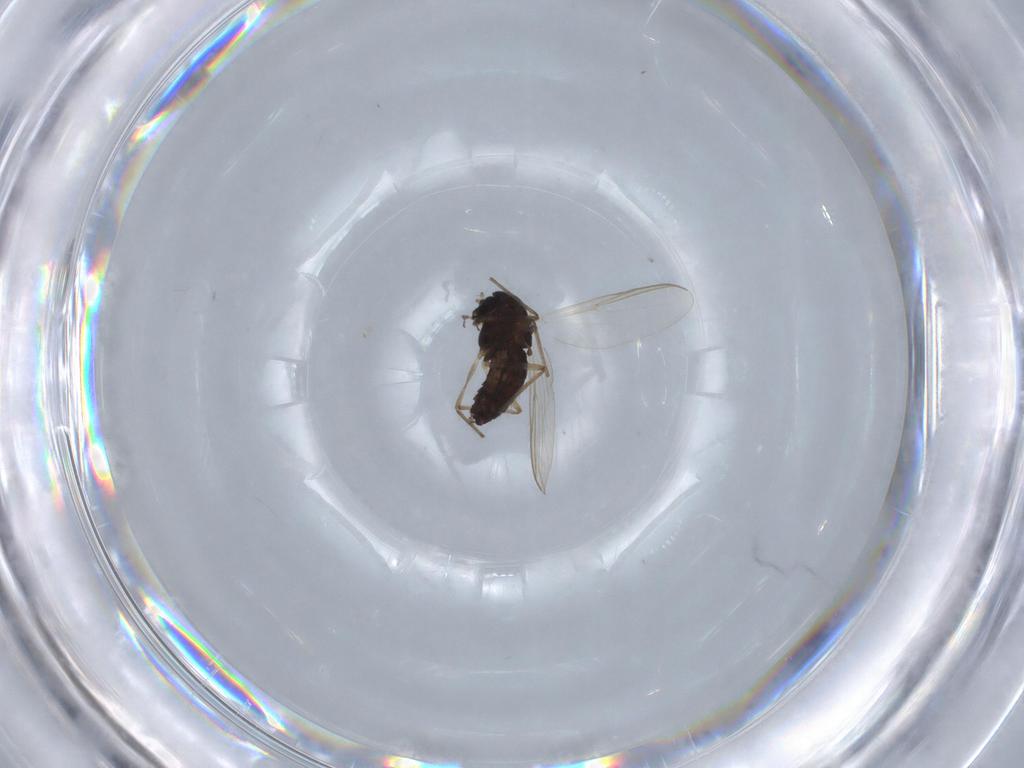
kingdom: Animalia
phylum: Arthropoda
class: Insecta
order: Diptera
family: Chironomidae
